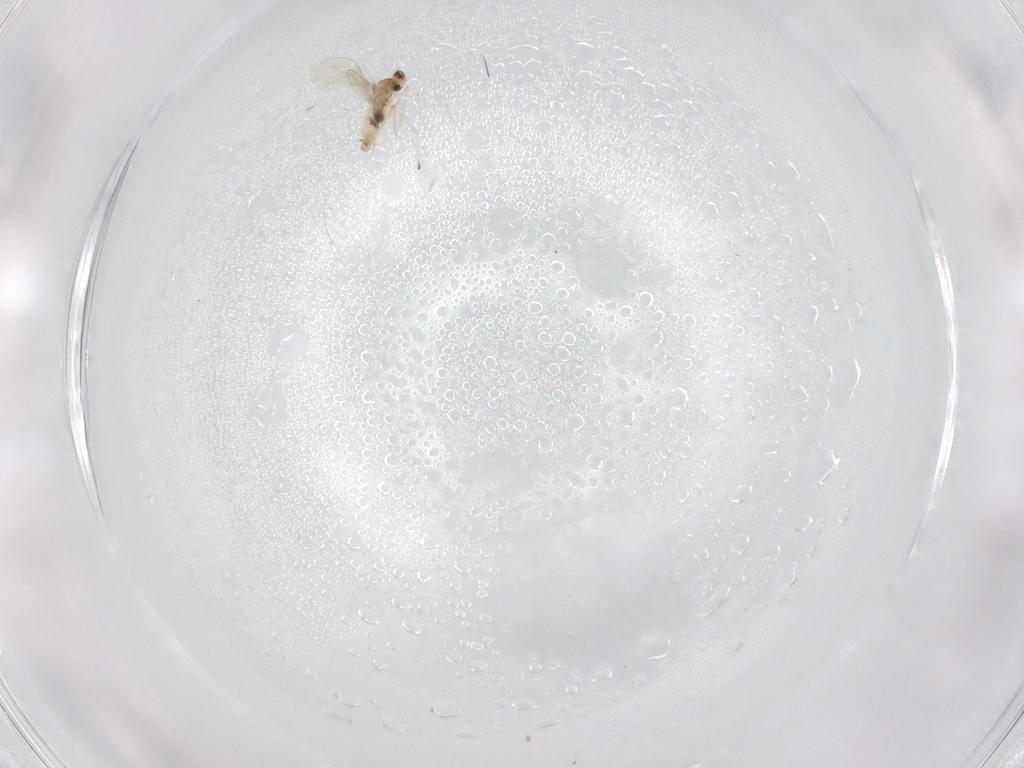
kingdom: Animalia
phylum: Arthropoda
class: Insecta
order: Diptera
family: Cecidomyiidae
